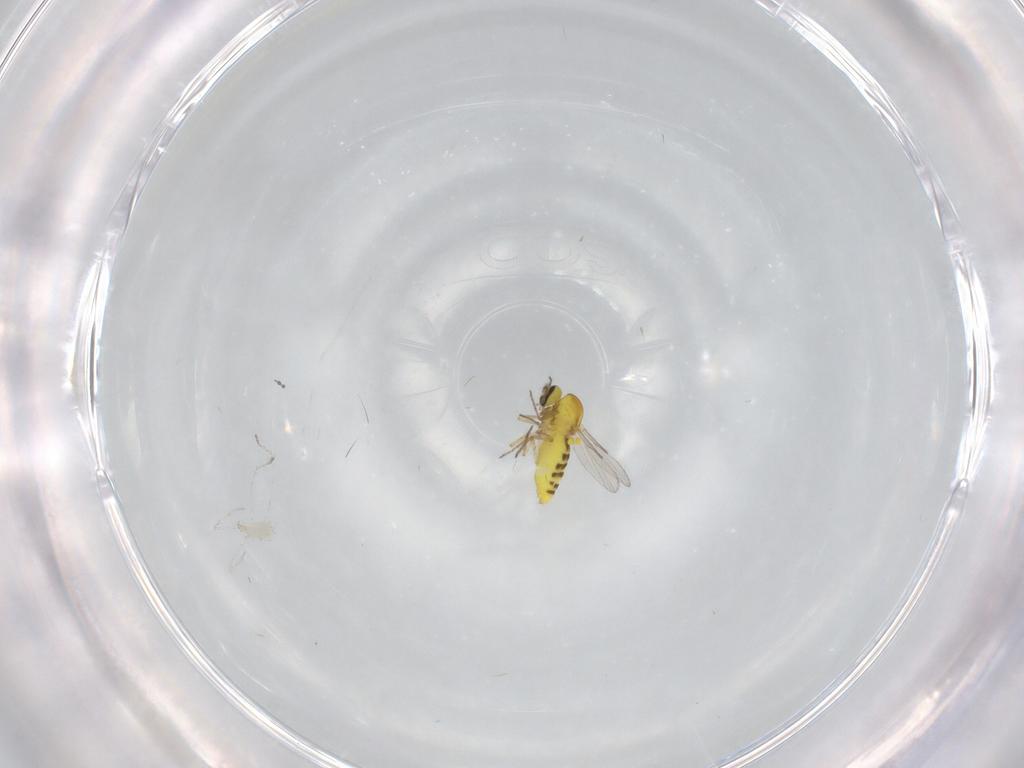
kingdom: Animalia
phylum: Arthropoda
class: Insecta
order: Diptera
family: Ceratopogonidae
